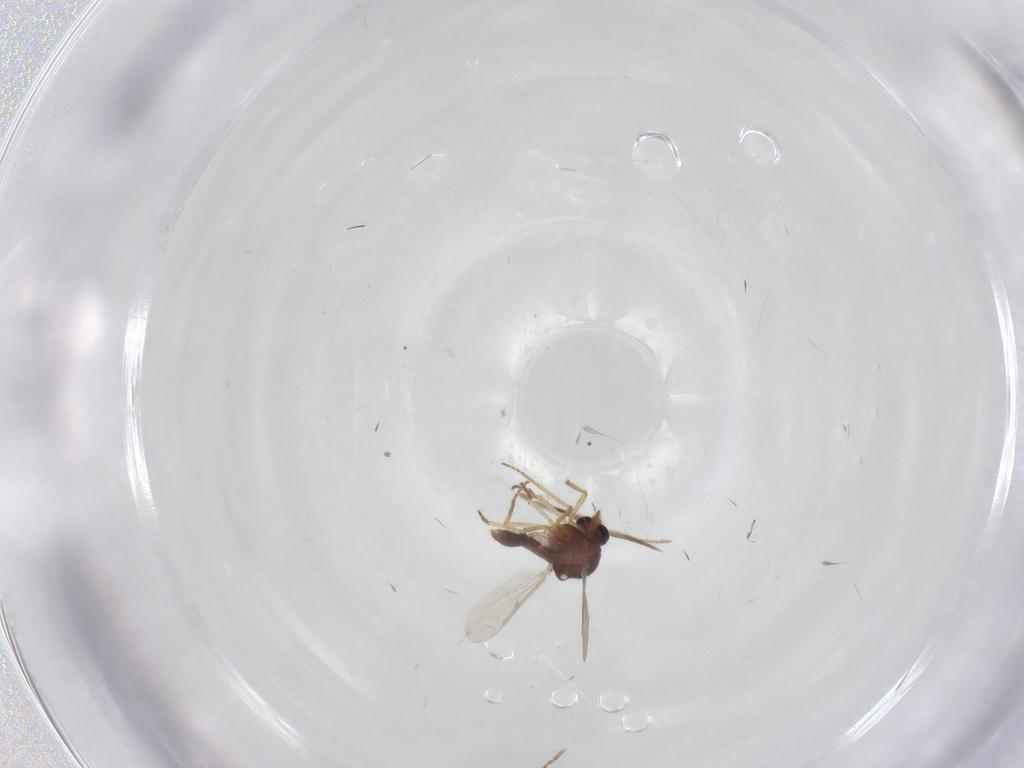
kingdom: Animalia
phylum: Arthropoda
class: Insecta
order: Diptera
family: Ceratopogonidae
